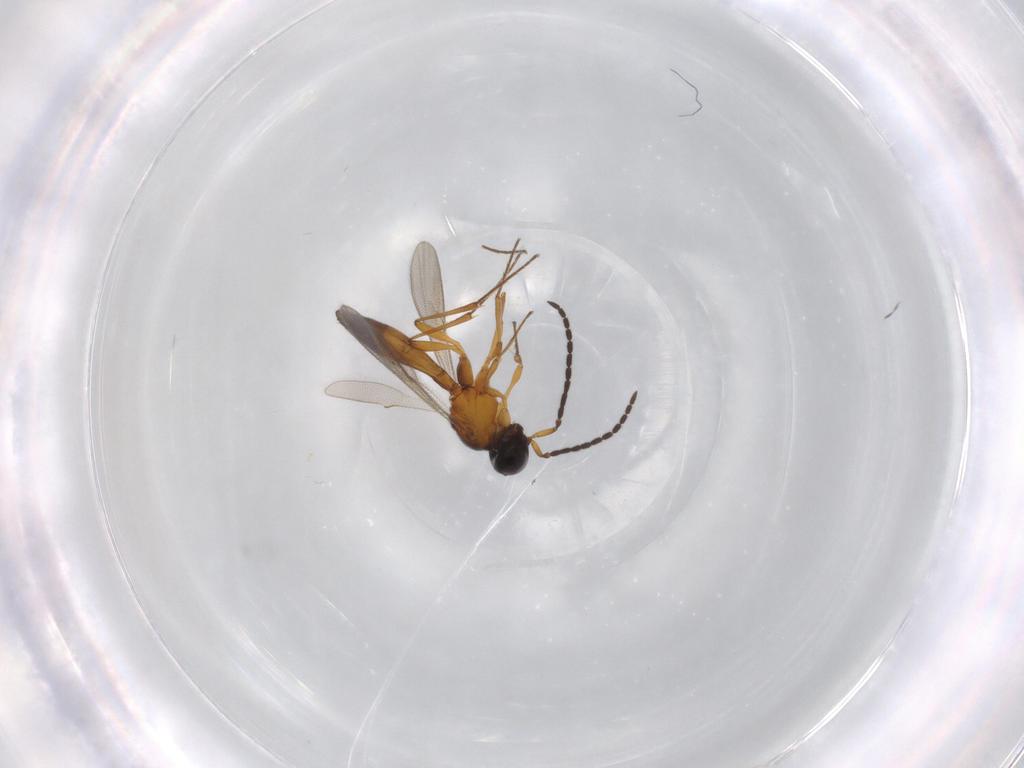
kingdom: Animalia
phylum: Arthropoda
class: Insecta
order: Hymenoptera
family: Scelionidae
